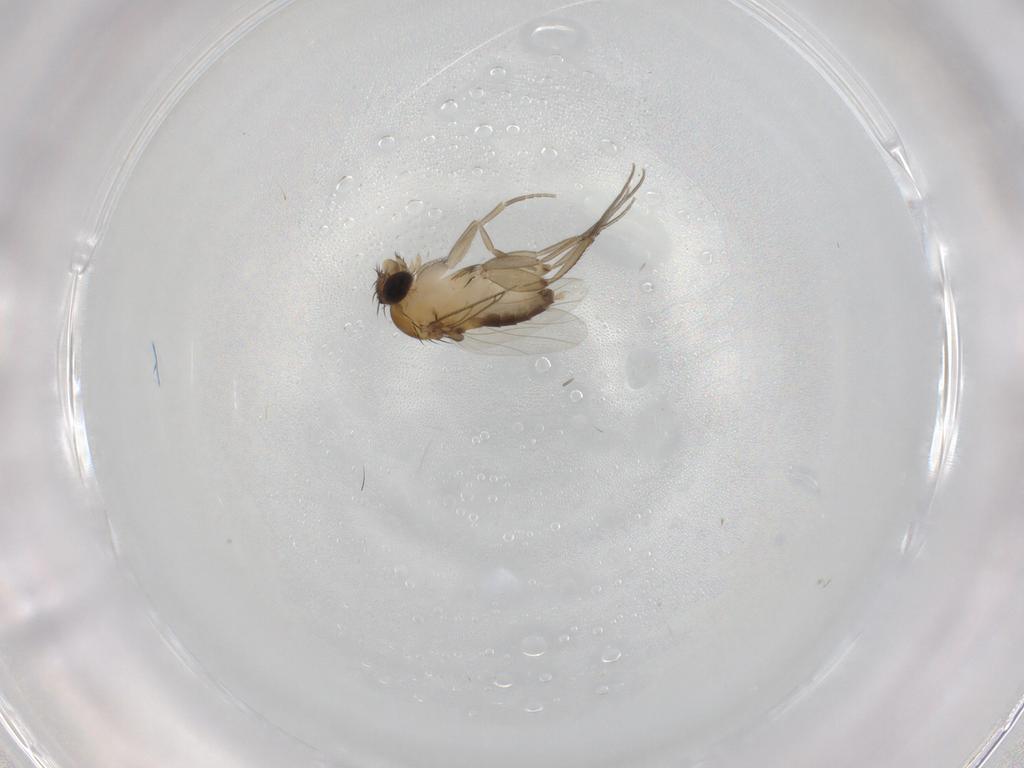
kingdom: Animalia
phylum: Arthropoda
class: Insecta
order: Diptera
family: Phoridae
